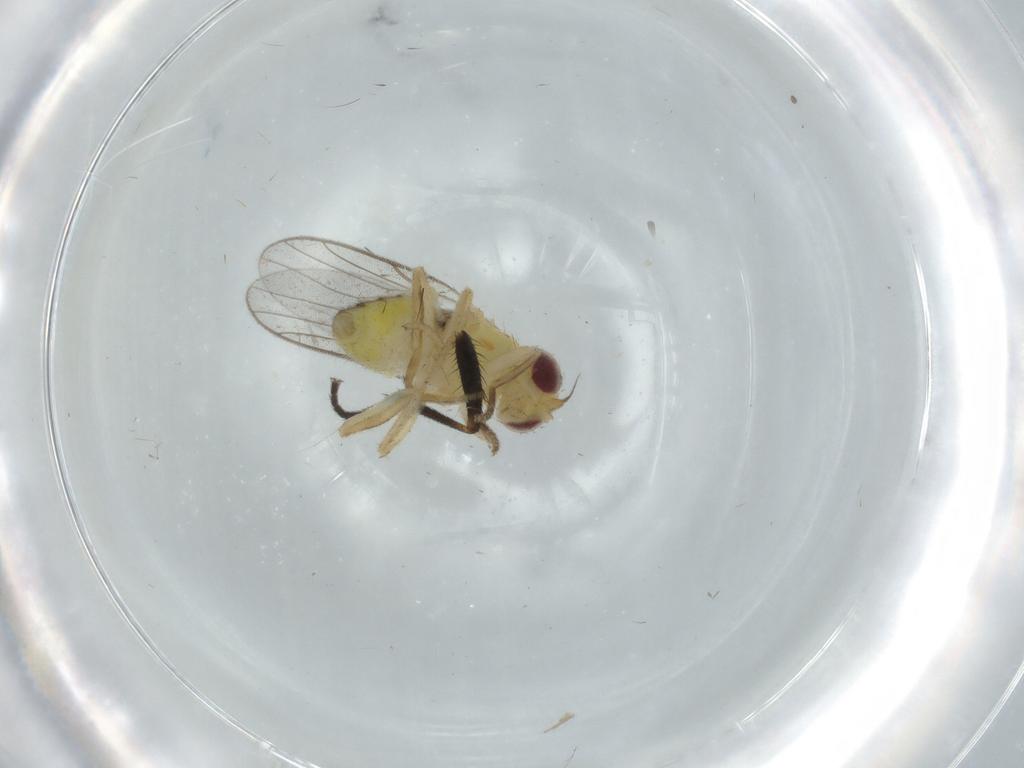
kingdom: Animalia
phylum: Arthropoda
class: Insecta
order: Diptera
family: Chloropidae
